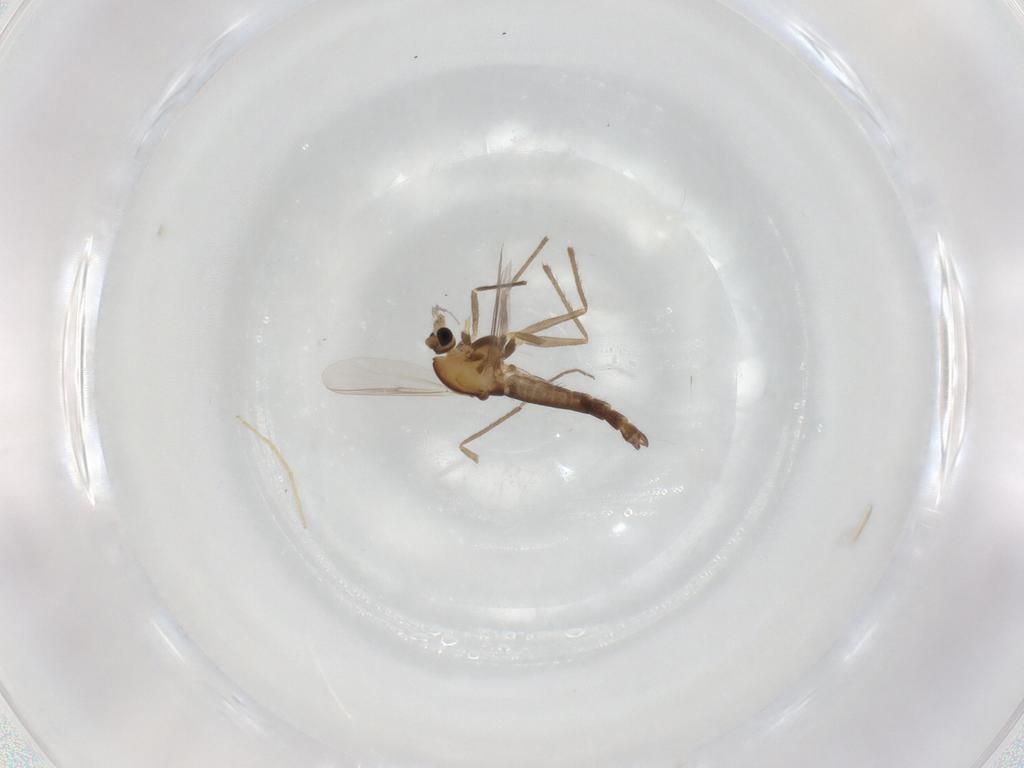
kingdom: Animalia
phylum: Arthropoda
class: Insecta
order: Diptera
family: Chironomidae
